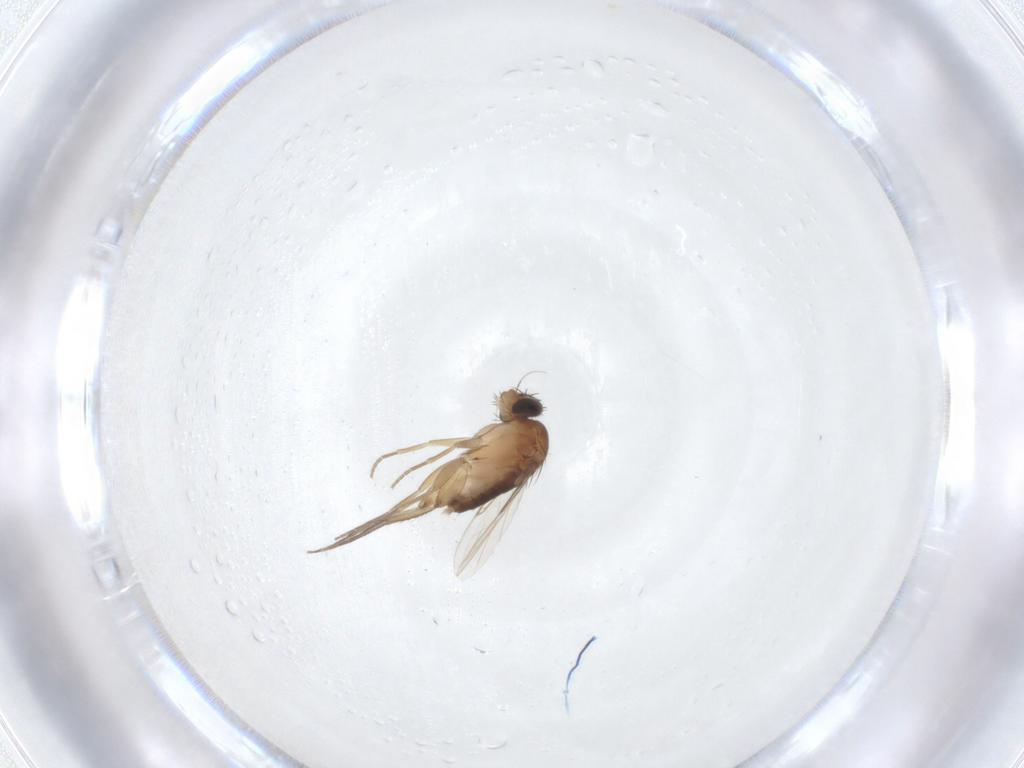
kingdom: Animalia
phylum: Arthropoda
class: Insecta
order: Diptera
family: Phoridae
